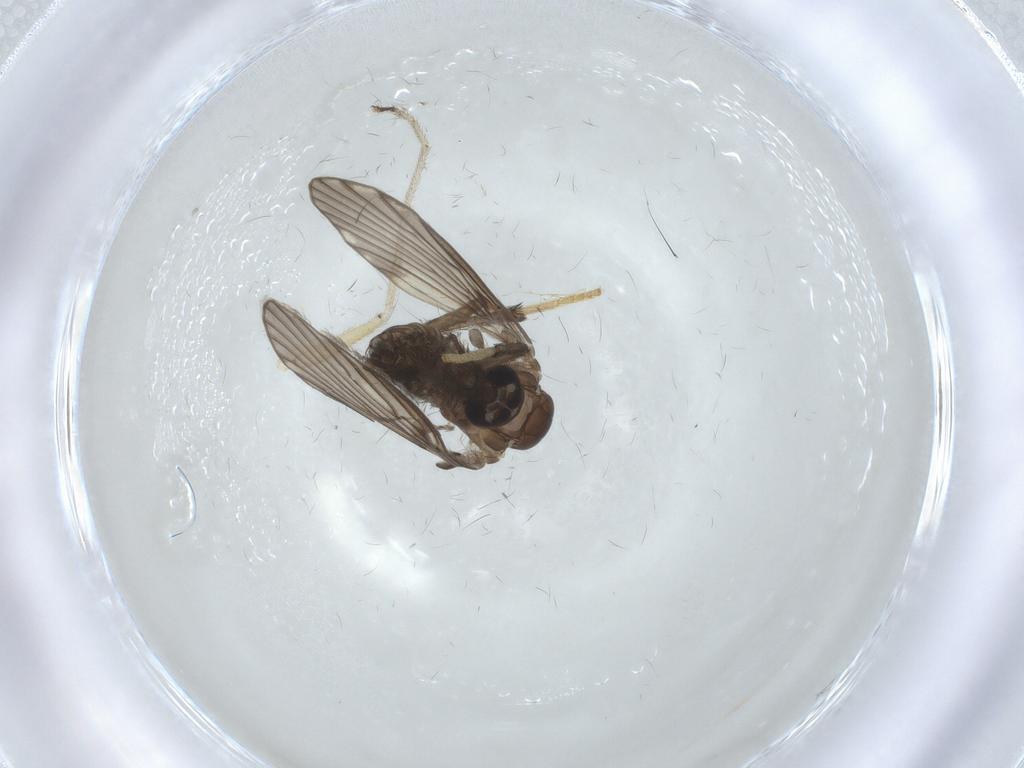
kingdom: Animalia
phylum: Arthropoda
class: Insecta
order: Diptera
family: Psychodidae
